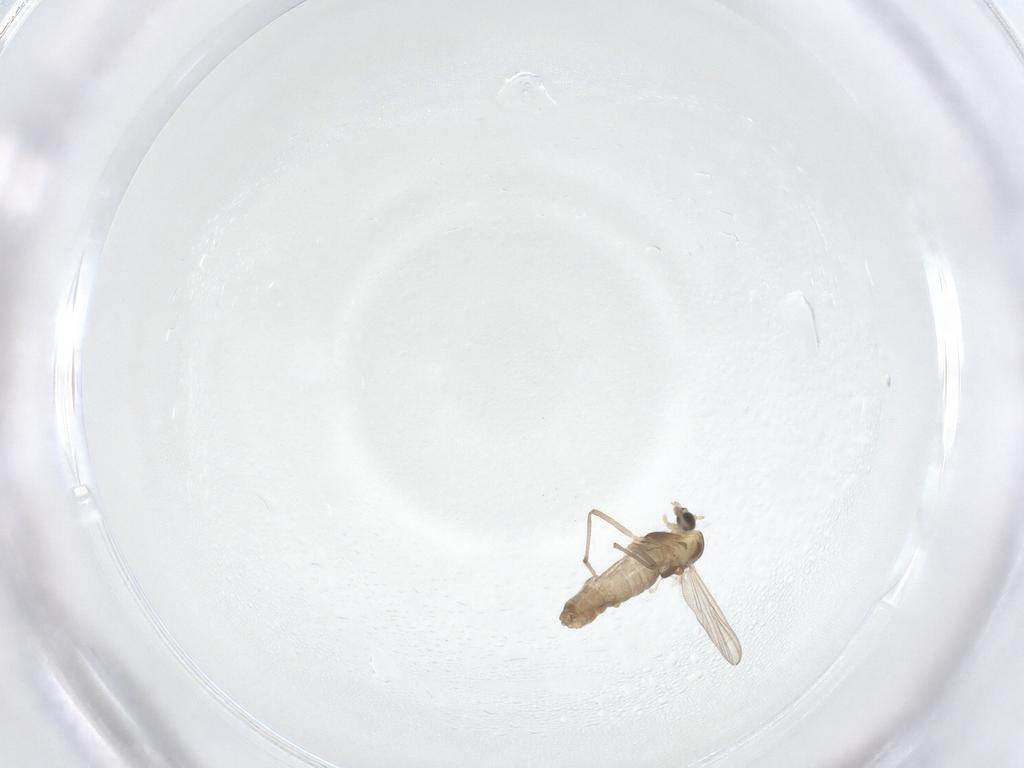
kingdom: Animalia
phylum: Arthropoda
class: Insecta
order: Diptera
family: Chironomidae
